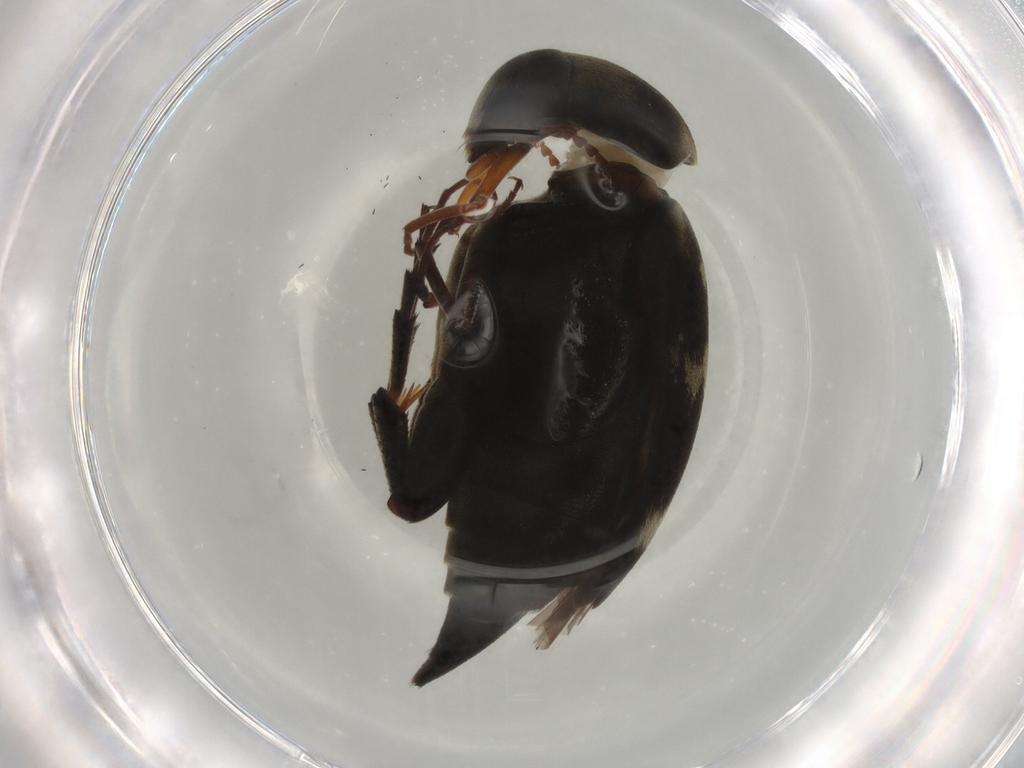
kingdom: Animalia
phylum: Arthropoda
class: Insecta
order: Coleoptera
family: Mordellidae
